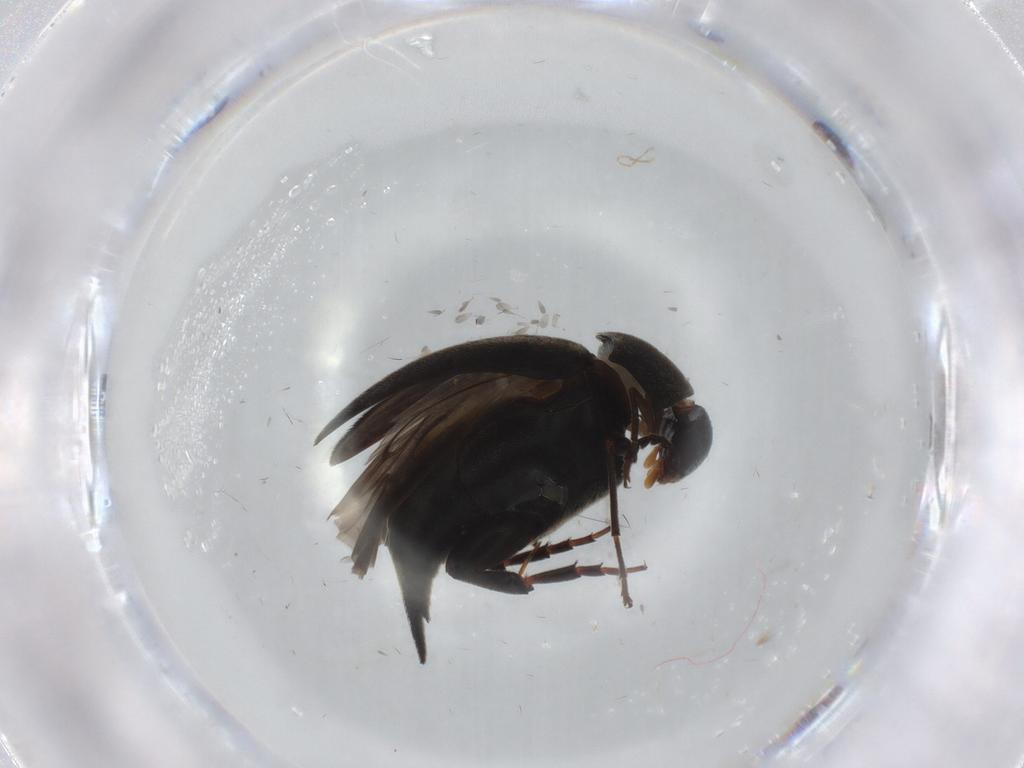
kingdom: Animalia
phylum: Arthropoda
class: Insecta
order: Coleoptera
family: Mordellidae
